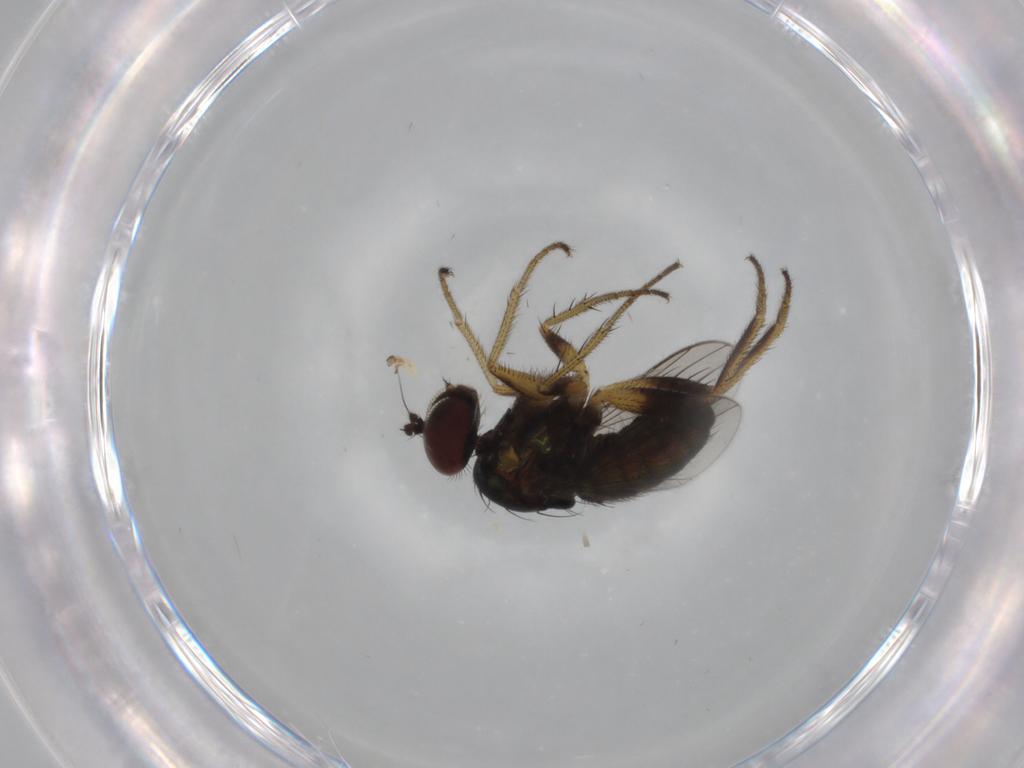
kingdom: Animalia
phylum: Arthropoda
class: Insecta
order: Diptera
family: Dolichopodidae
